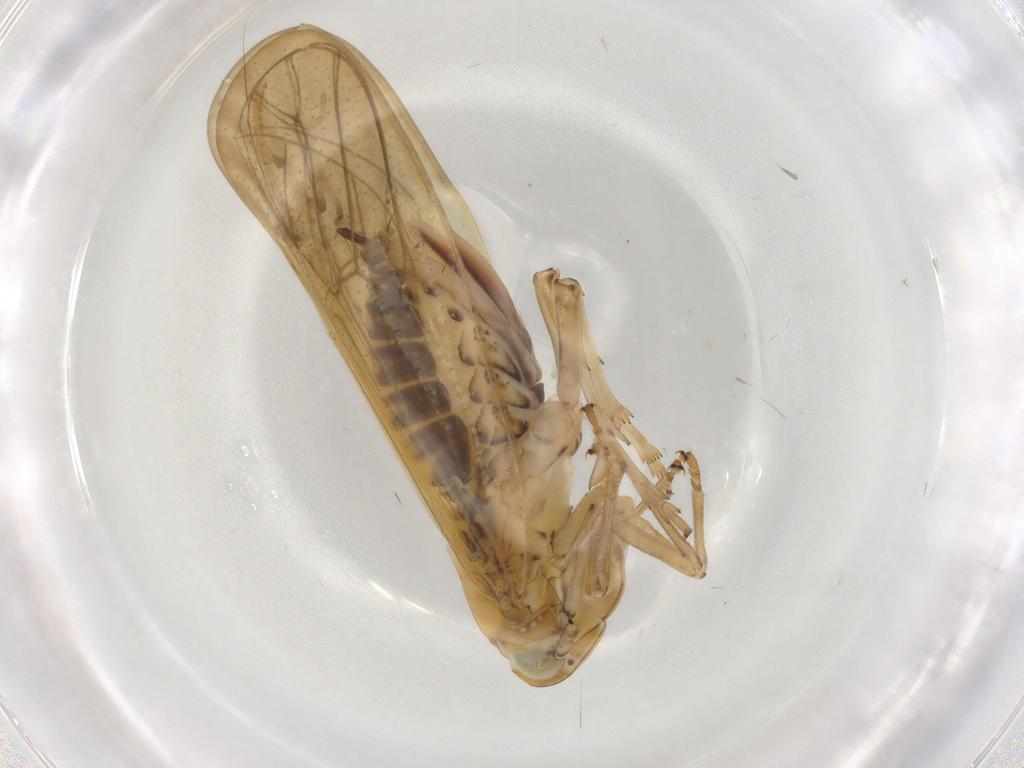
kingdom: Animalia
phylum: Arthropoda
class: Insecta
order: Hemiptera
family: Delphacidae
